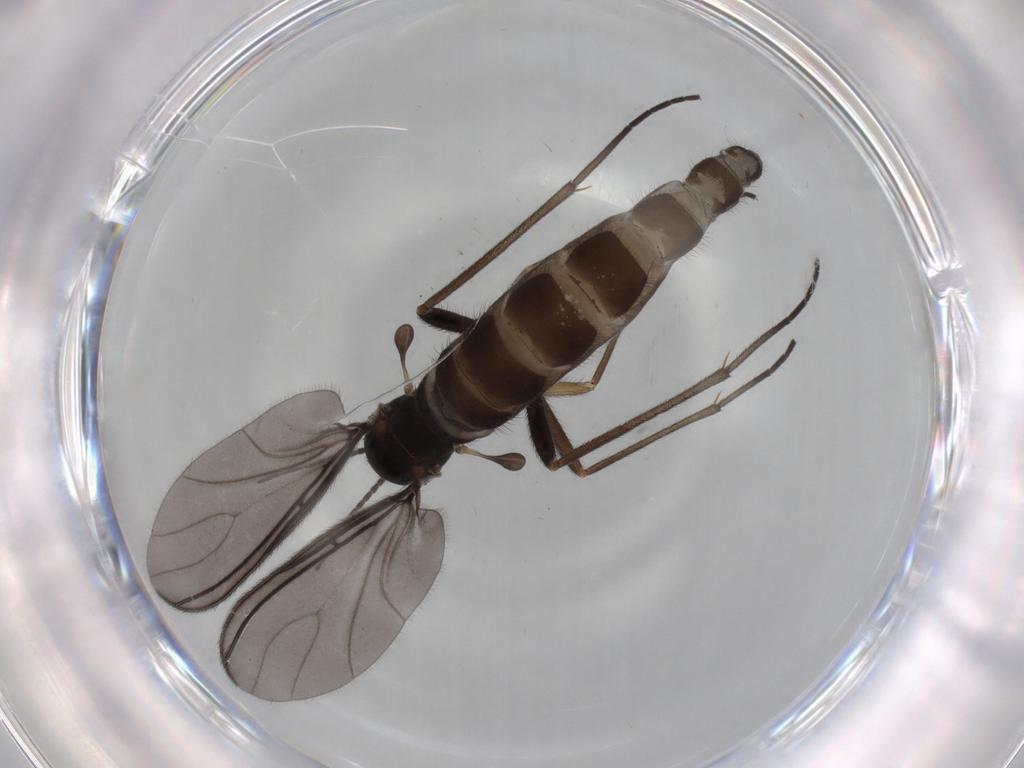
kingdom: Animalia
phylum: Arthropoda
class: Insecta
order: Diptera
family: Sciaridae
